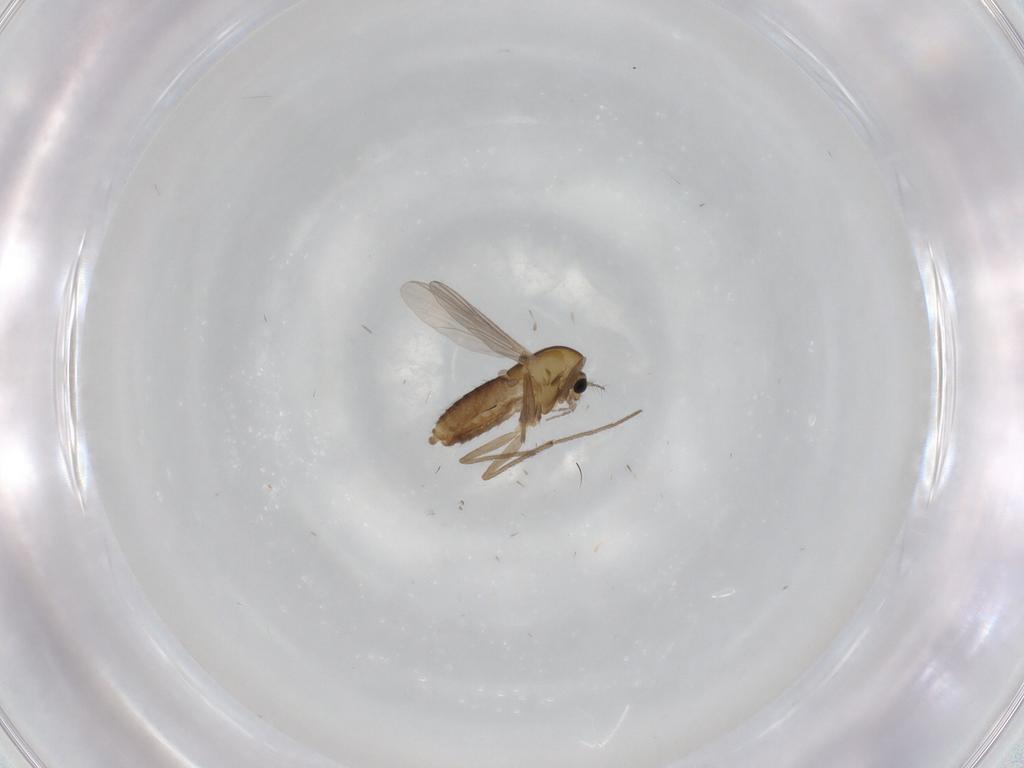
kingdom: Animalia
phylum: Arthropoda
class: Insecta
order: Diptera
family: Chironomidae
